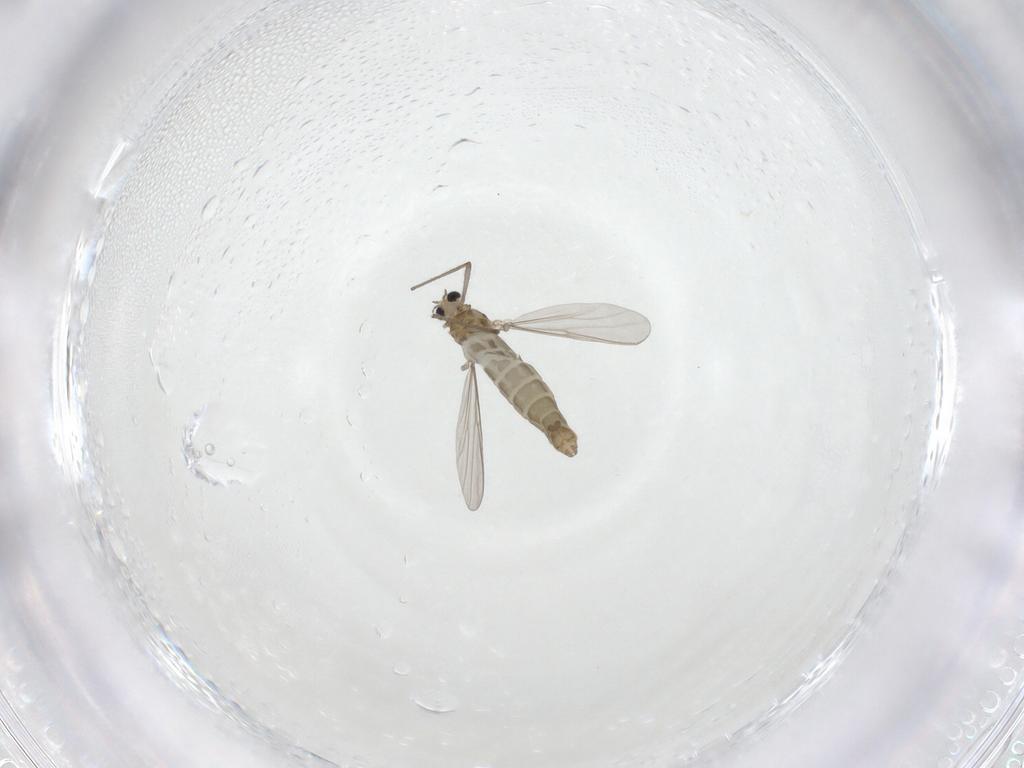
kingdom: Animalia
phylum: Arthropoda
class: Insecta
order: Diptera
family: Chironomidae
